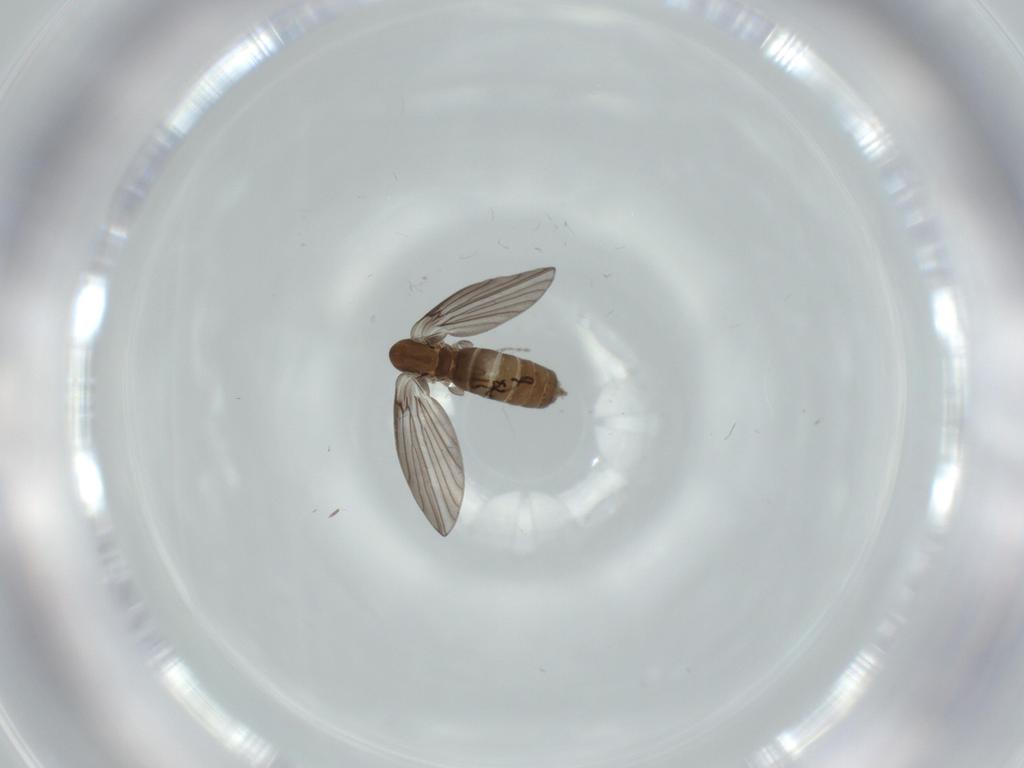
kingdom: Animalia
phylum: Arthropoda
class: Insecta
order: Diptera
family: Psychodidae
